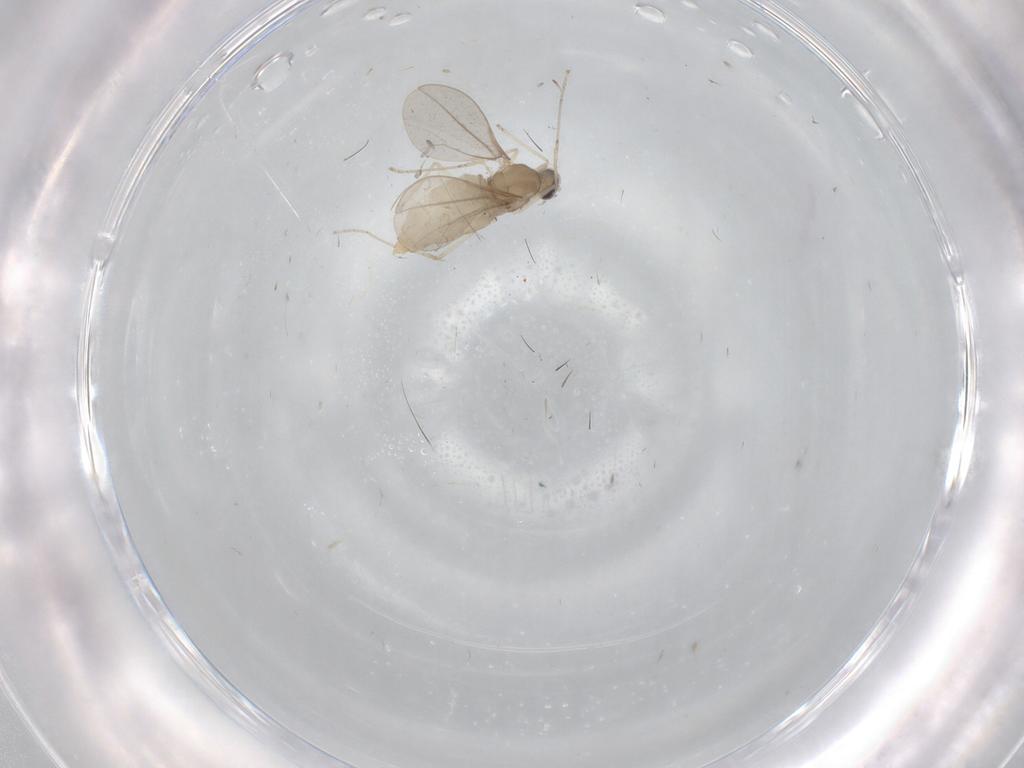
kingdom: Animalia
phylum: Arthropoda
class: Insecta
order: Diptera
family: Cecidomyiidae
